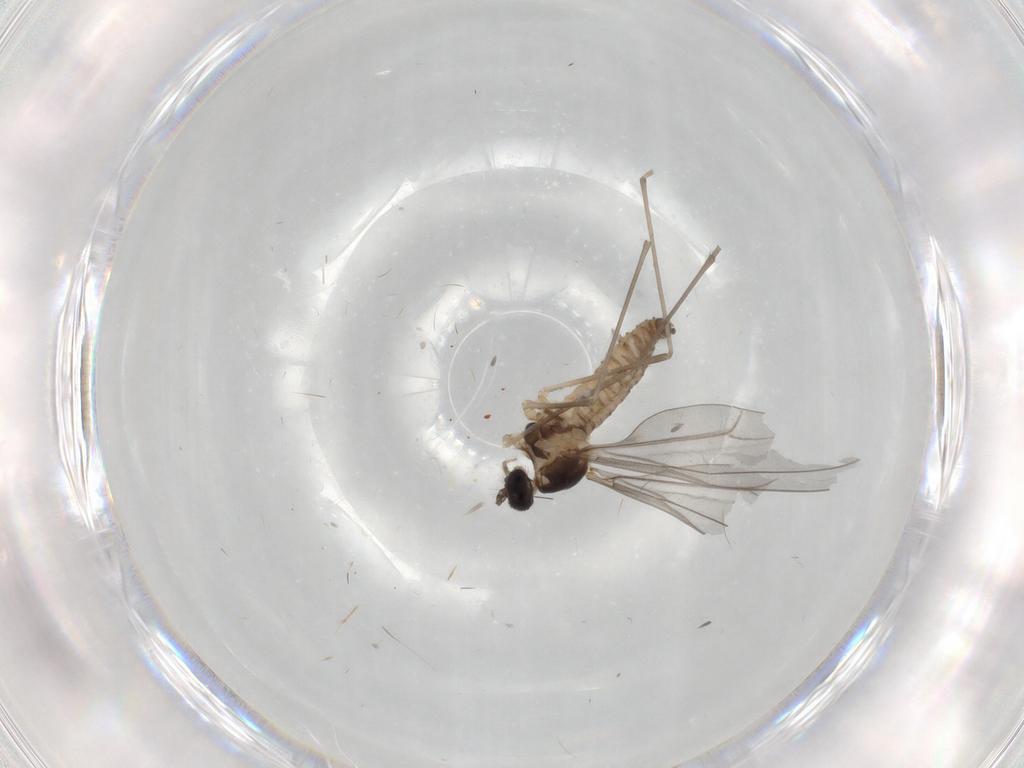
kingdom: Animalia
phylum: Arthropoda
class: Insecta
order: Diptera
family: Cecidomyiidae
